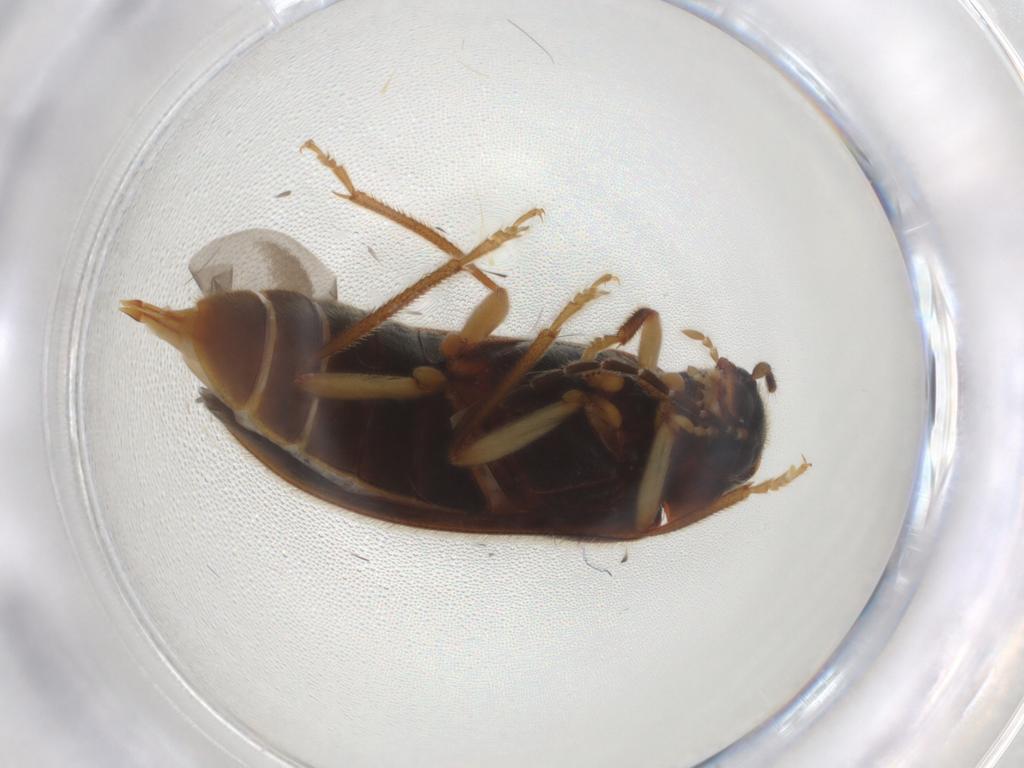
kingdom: Animalia
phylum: Arthropoda
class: Insecta
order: Coleoptera
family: Ptilodactylidae
